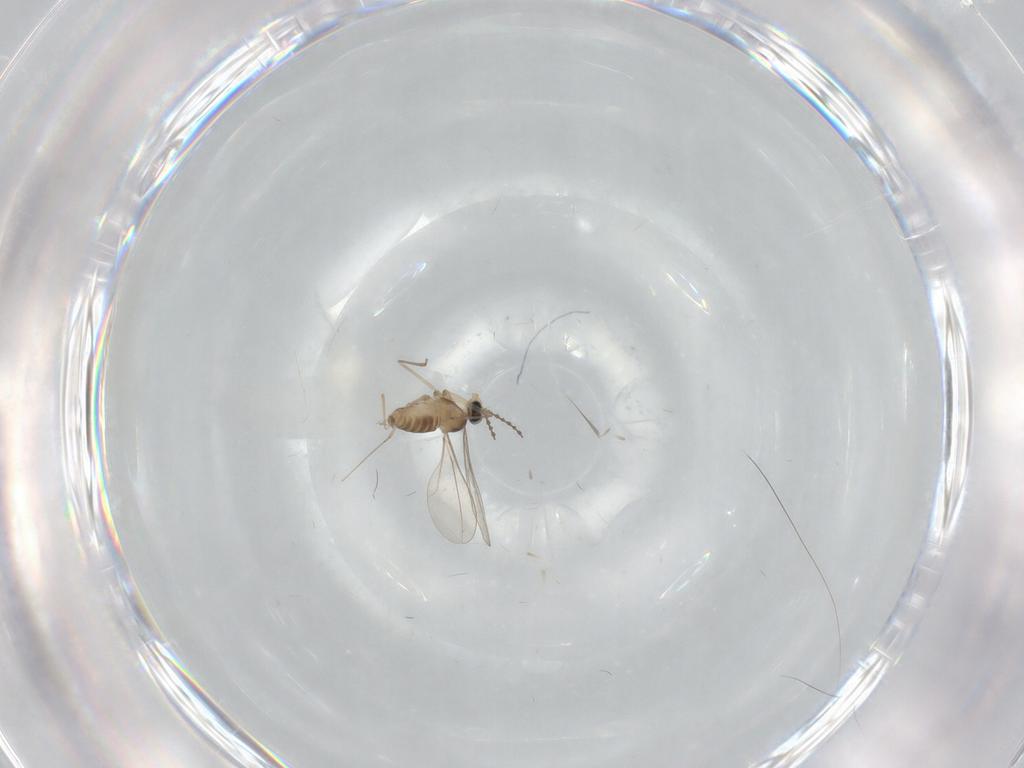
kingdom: Animalia
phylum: Arthropoda
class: Insecta
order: Diptera
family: Cecidomyiidae
